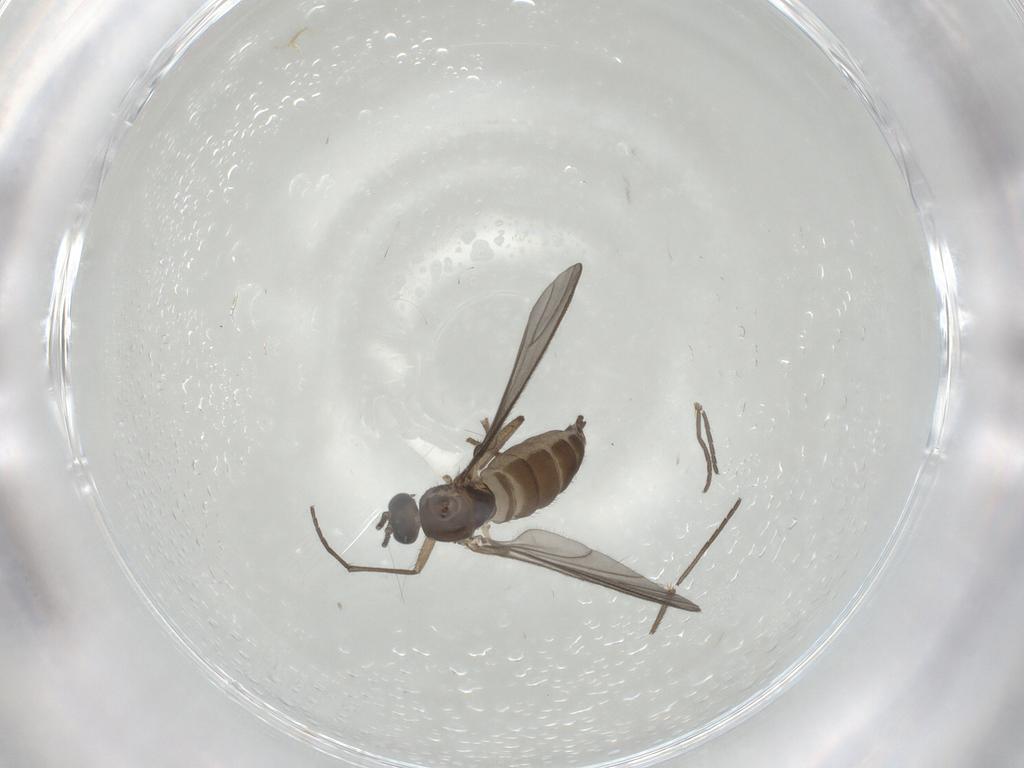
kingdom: Animalia
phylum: Arthropoda
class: Insecta
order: Diptera
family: Sciaridae
